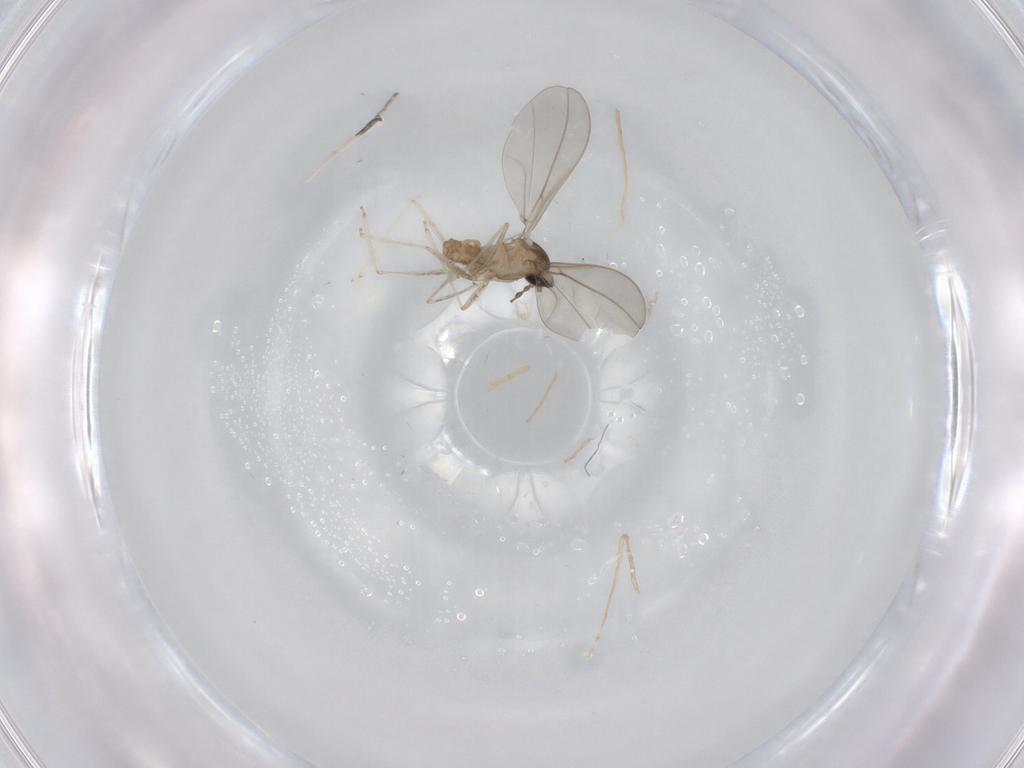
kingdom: Animalia
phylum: Arthropoda
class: Insecta
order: Diptera
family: Cecidomyiidae
